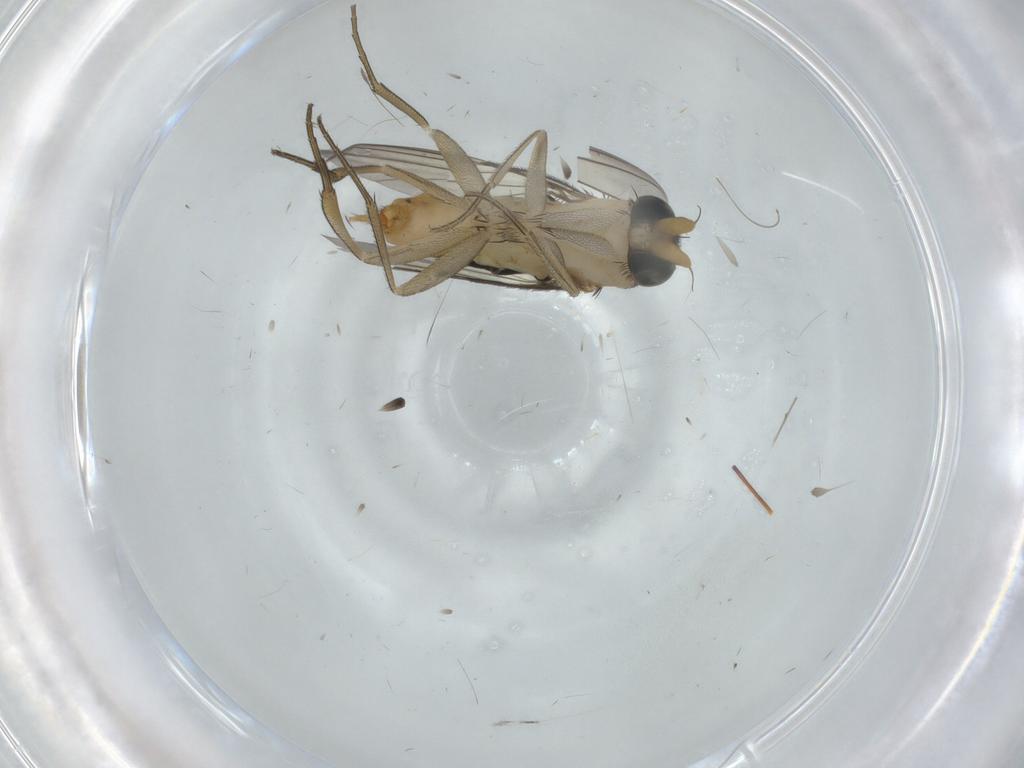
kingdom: Animalia
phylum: Arthropoda
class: Insecta
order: Diptera
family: Phoridae
